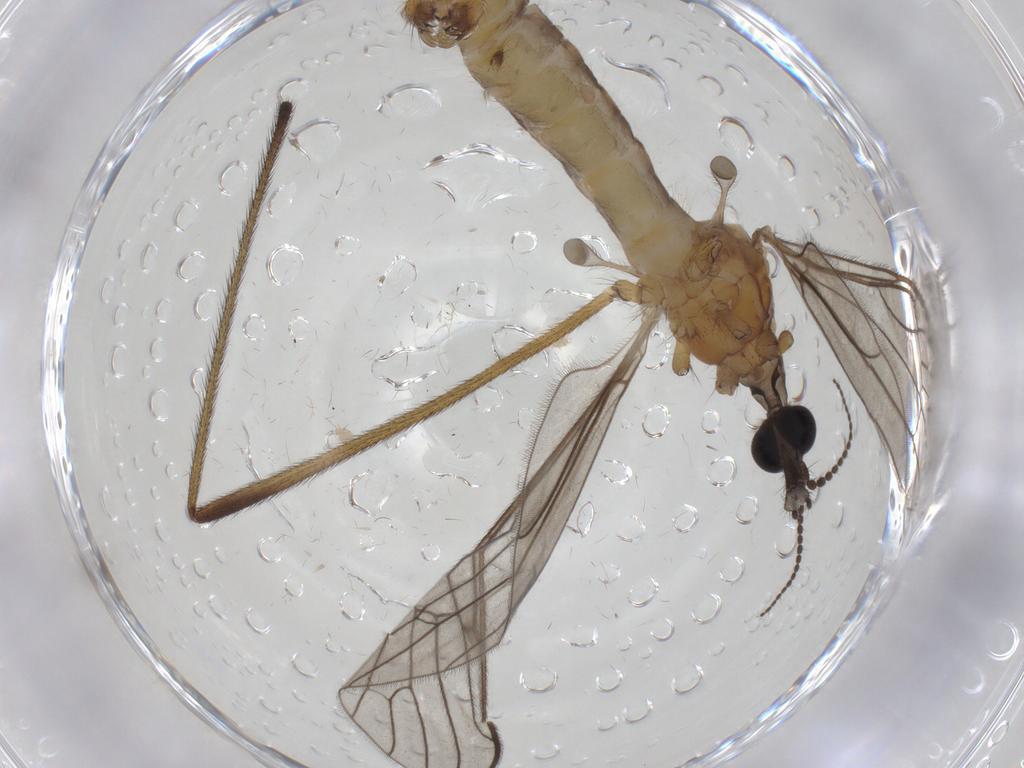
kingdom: Animalia
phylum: Arthropoda
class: Insecta
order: Diptera
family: Limoniidae
